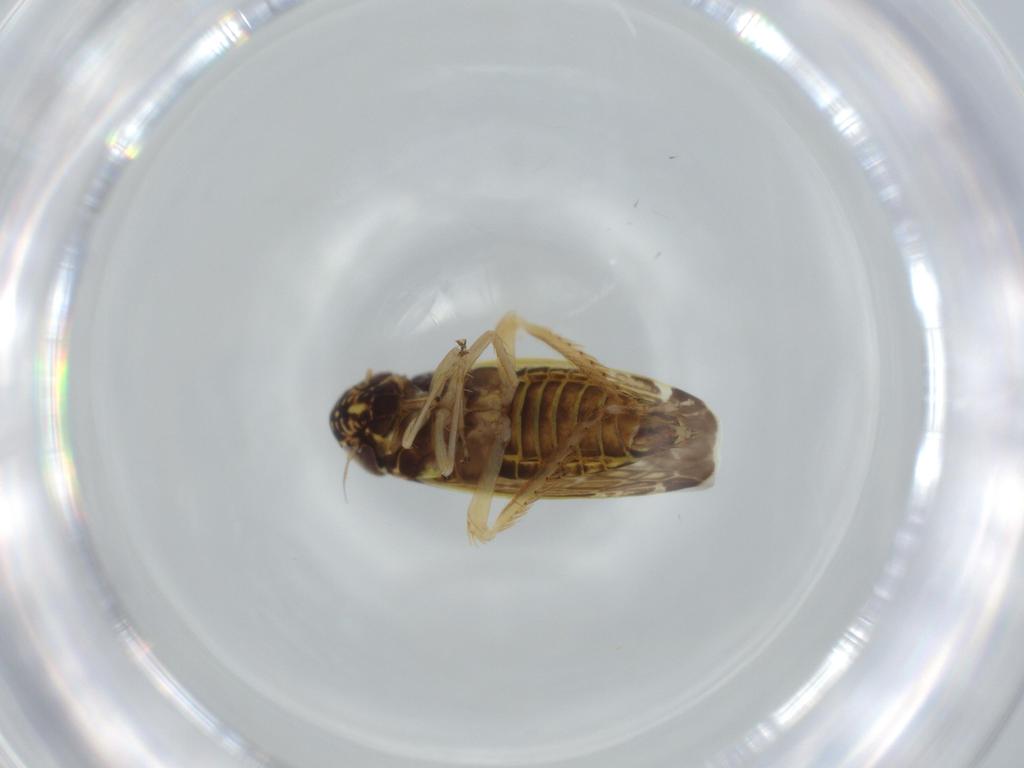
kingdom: Animalia
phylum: Arthropoda
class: Insecta
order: Hemiptera
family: Cicadellidae
